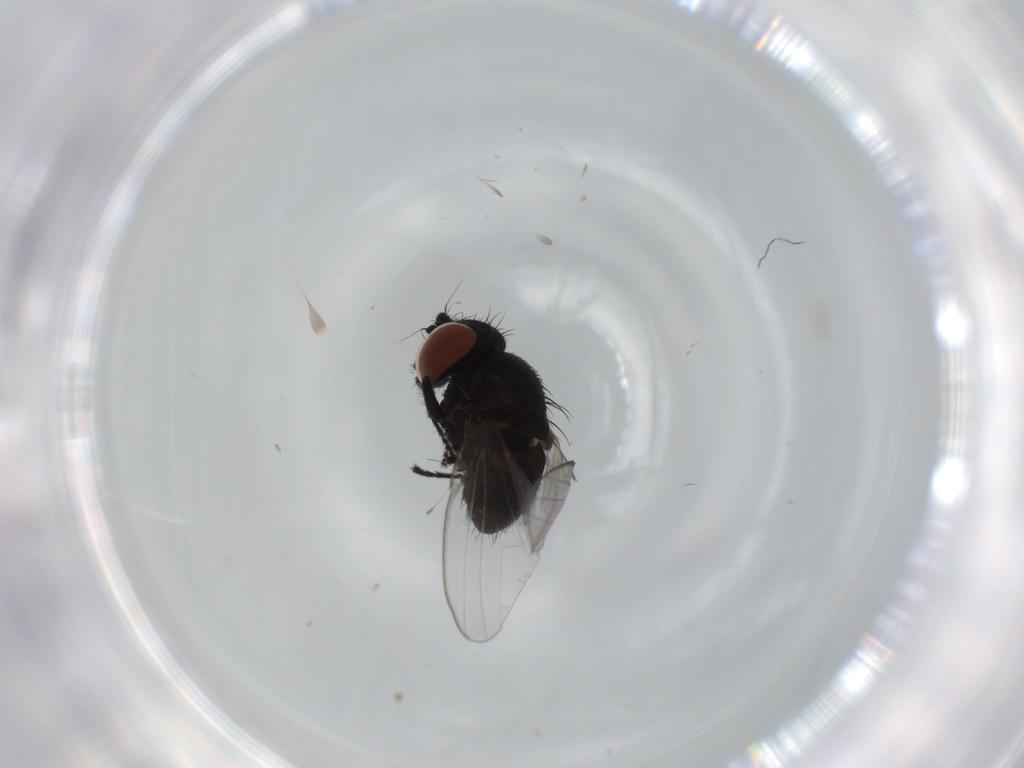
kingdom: Animalia
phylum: Arthropoda
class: Insecta
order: Diptera
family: Milichiidae
